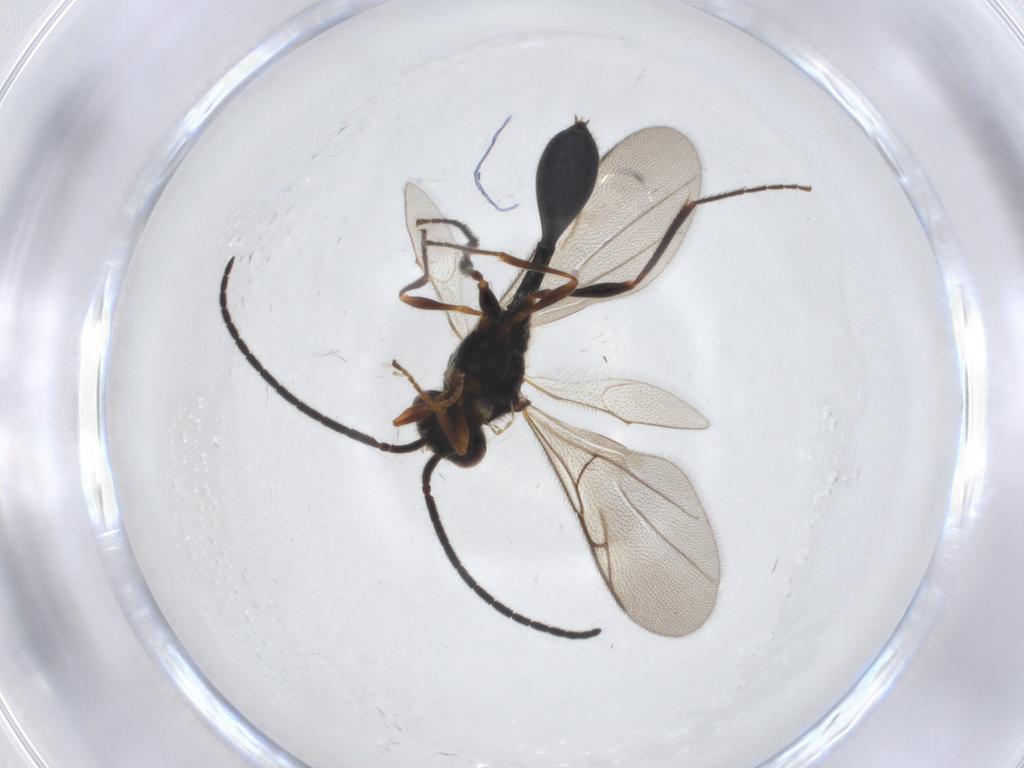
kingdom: Animalia
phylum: Arthropoda
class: Insecta
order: Hymenoptera
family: Diapriidae
